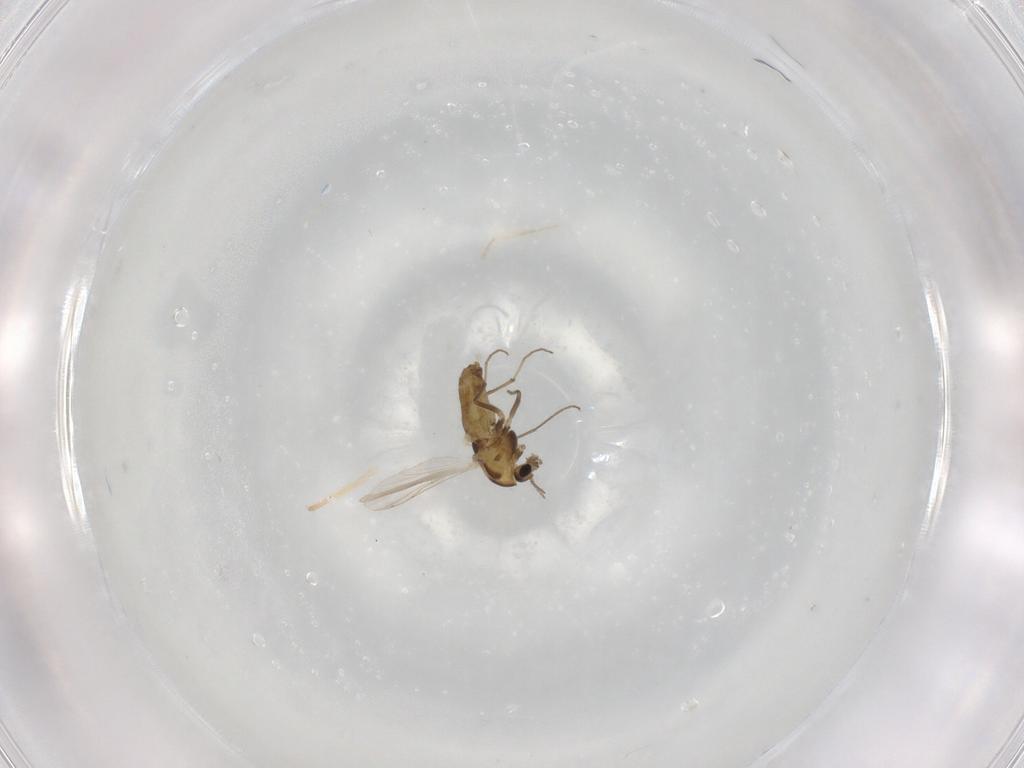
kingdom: Animalia
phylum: Arthropoda
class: Insecta
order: Diptera
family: Chironomidae
